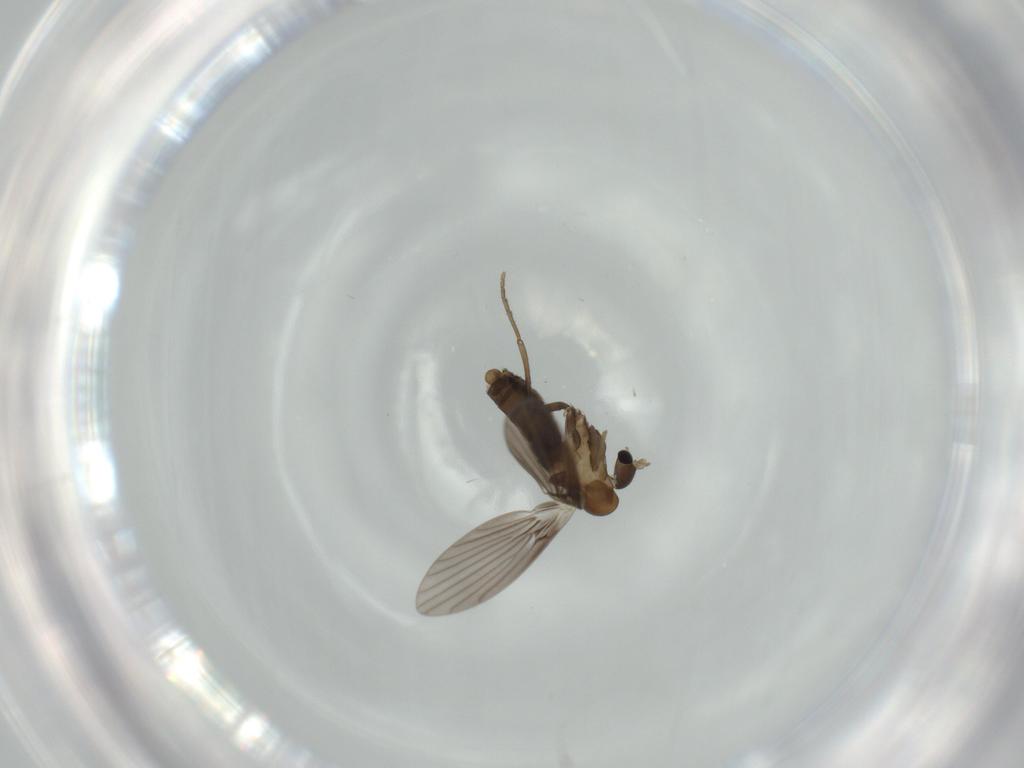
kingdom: Animalia
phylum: Arthropoda
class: Insecta
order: Diptera
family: Psychodidae
